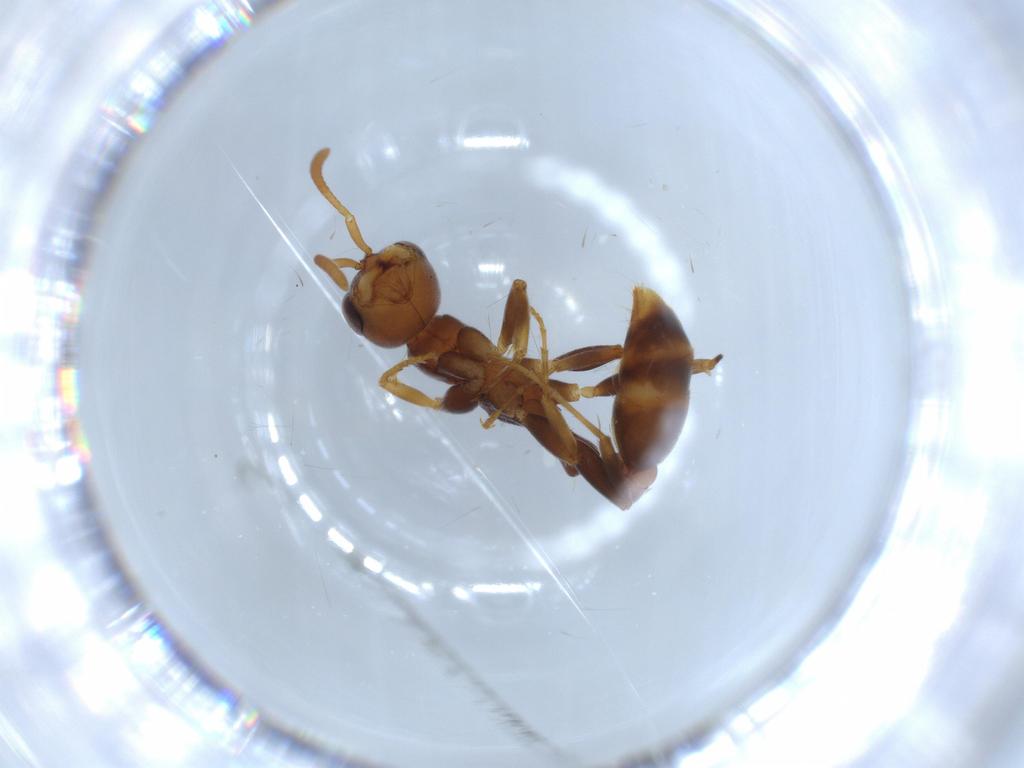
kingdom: Animalia
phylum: Arthropoda
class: Insecta
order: Hymenoptera
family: Formicidae
